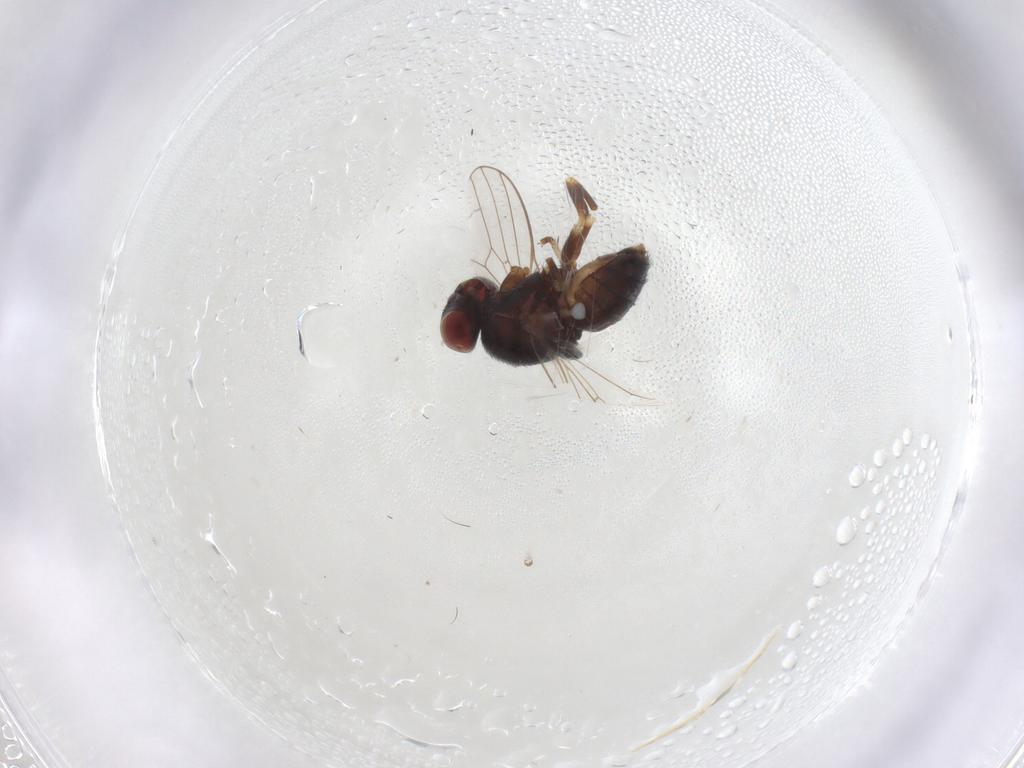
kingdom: Animalia
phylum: Arthropoda
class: Insecta
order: Hymenoptera
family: Figitidae
